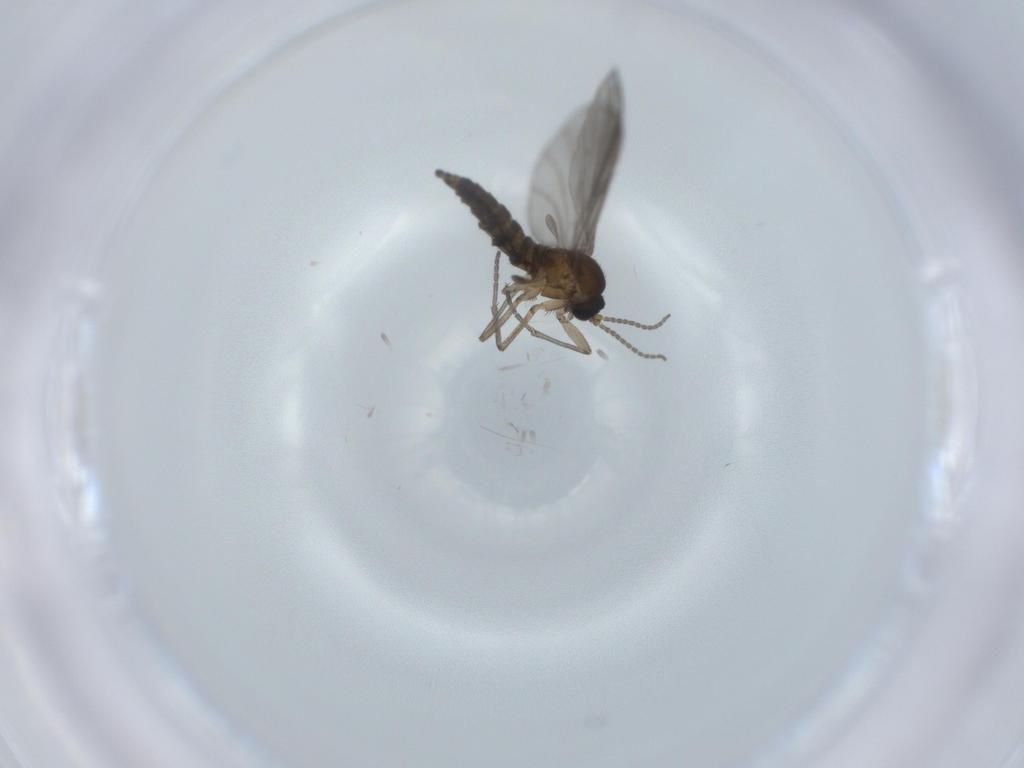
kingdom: Animalia
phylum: Arthropoda
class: Insecta
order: Diptera
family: Sciaridae
